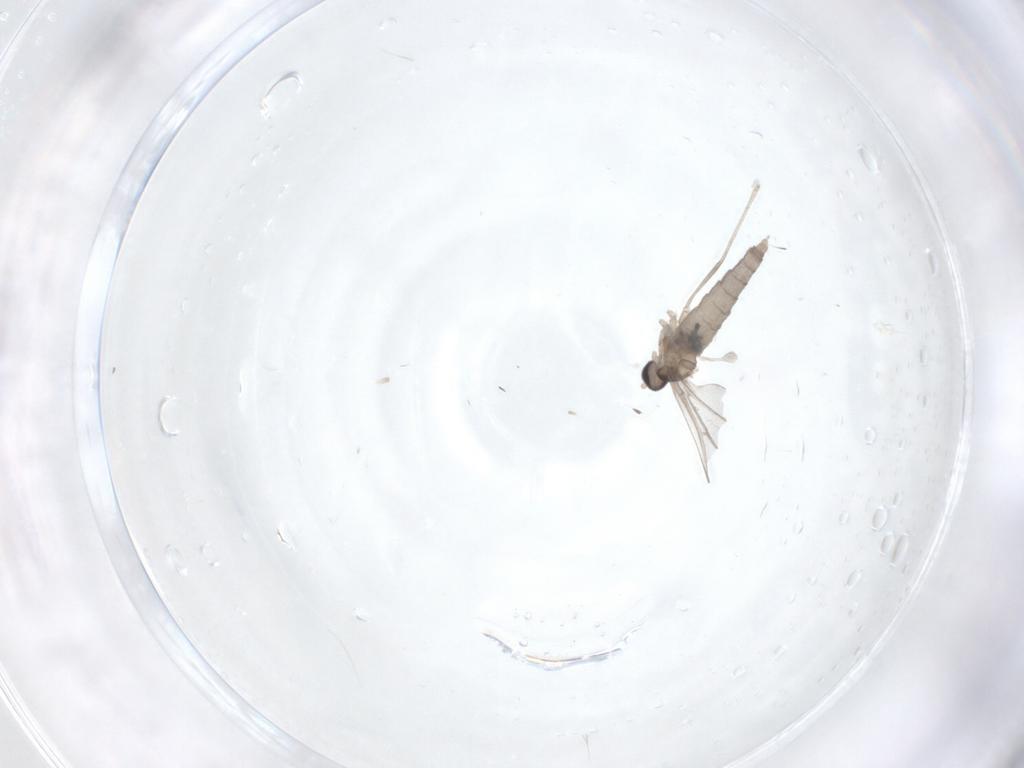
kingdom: Animalia
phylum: Arthropoda
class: Insecta
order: Diptera
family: Cecidomyiidae
